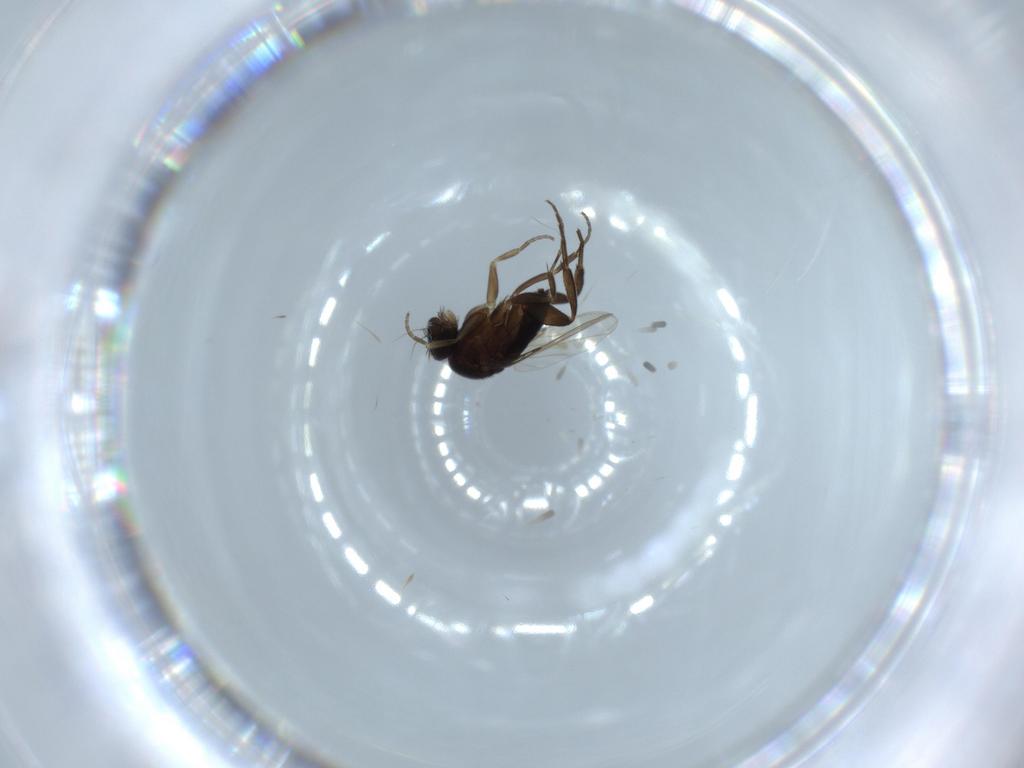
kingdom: Animalia
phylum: Arthropoda
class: Insecta
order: Diptera
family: Phoridae
